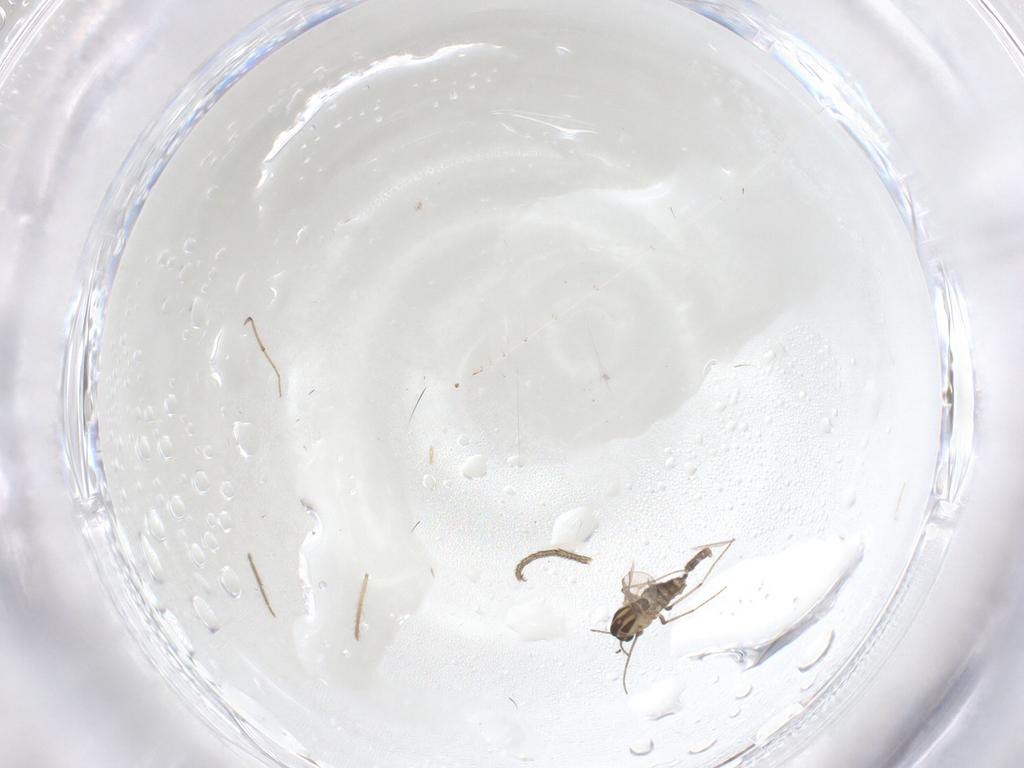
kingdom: Animalia
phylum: Arthropoda
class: Insecta
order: Diptera
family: Chironomidae
